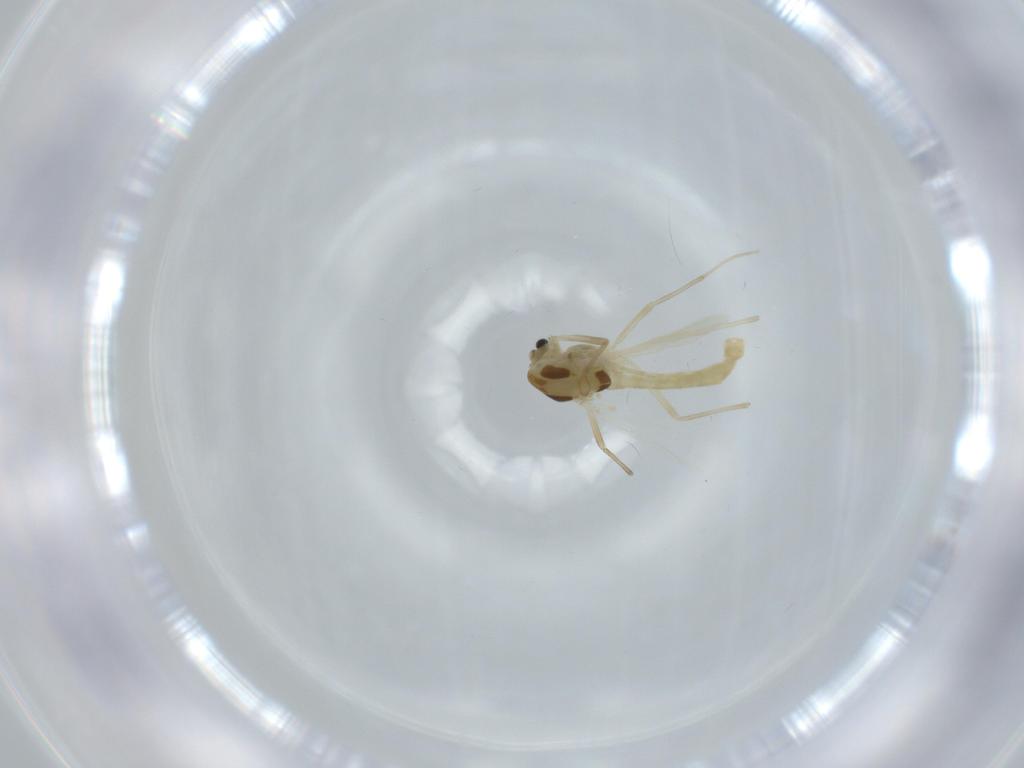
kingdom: Animalia
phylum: Arthropoda
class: Insecta
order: Diptera
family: Chironomidae
